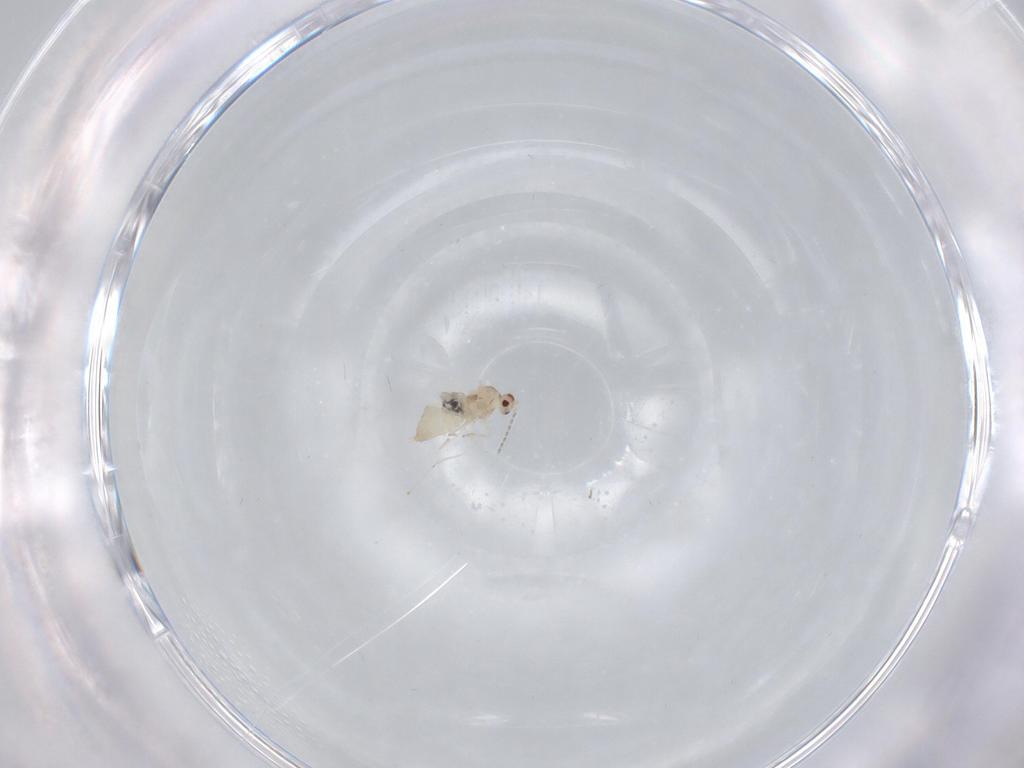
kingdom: Animalia
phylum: Arthropoda
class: Insecta
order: Diptera
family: Cecidomyiidae
